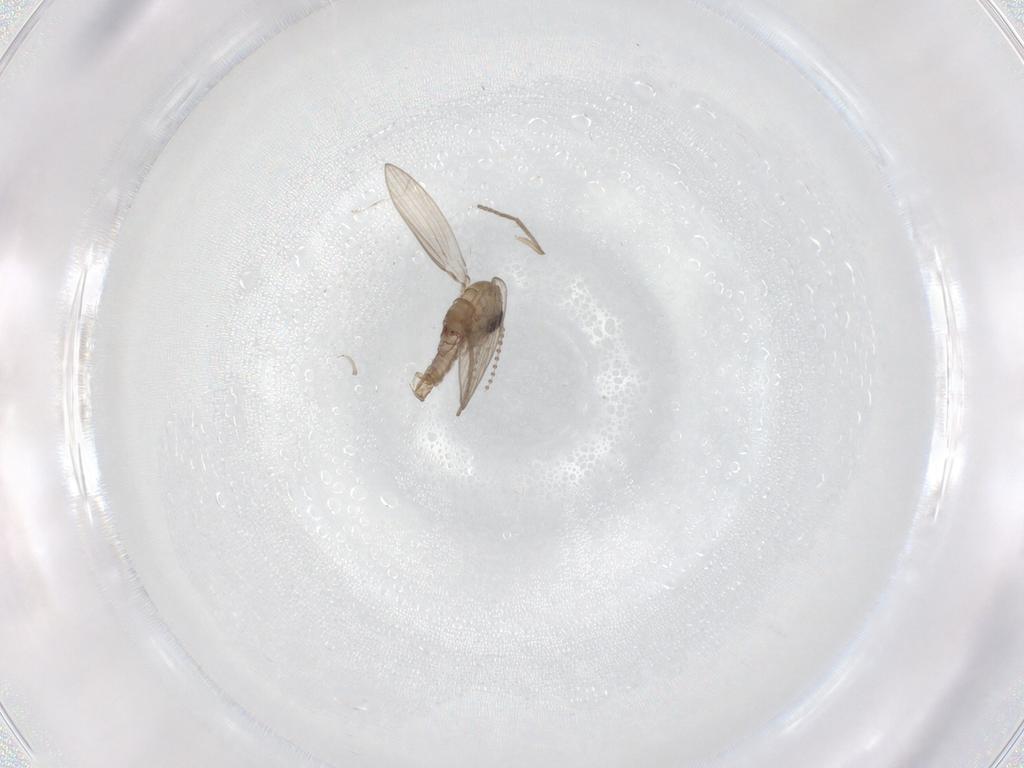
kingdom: Animalia
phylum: Arthropoda
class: Insecta
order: Diptera
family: Psychodidae
